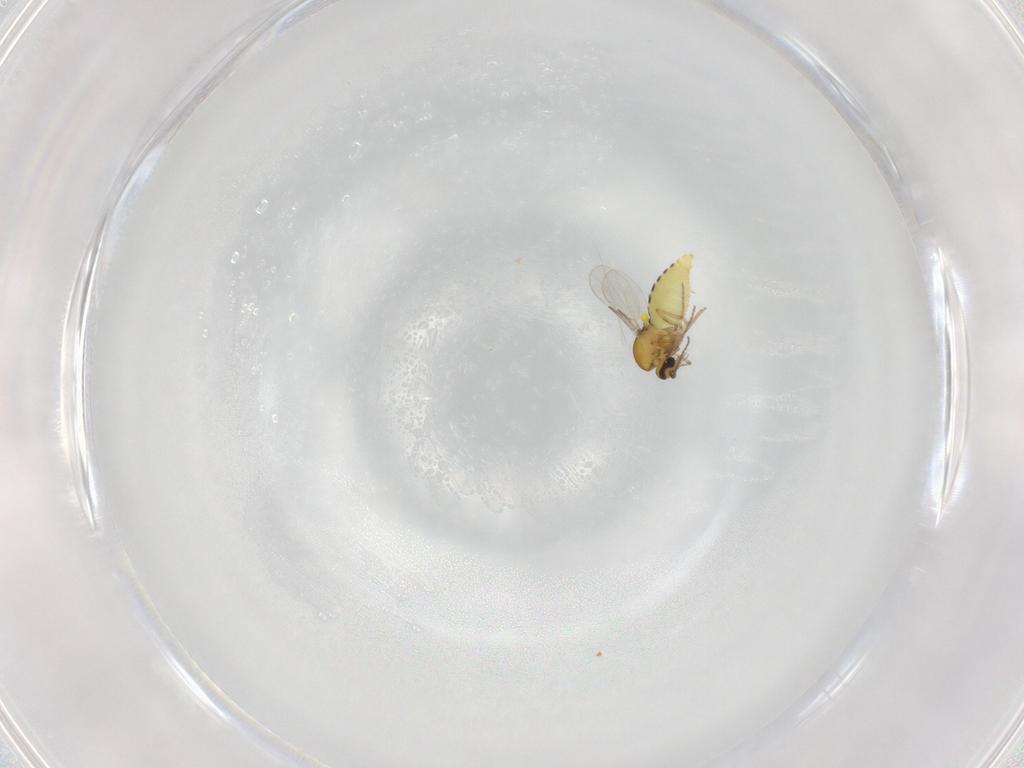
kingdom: Animalia
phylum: Arthropoda
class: Insecta
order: Diptera
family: Ceratopogonidae
